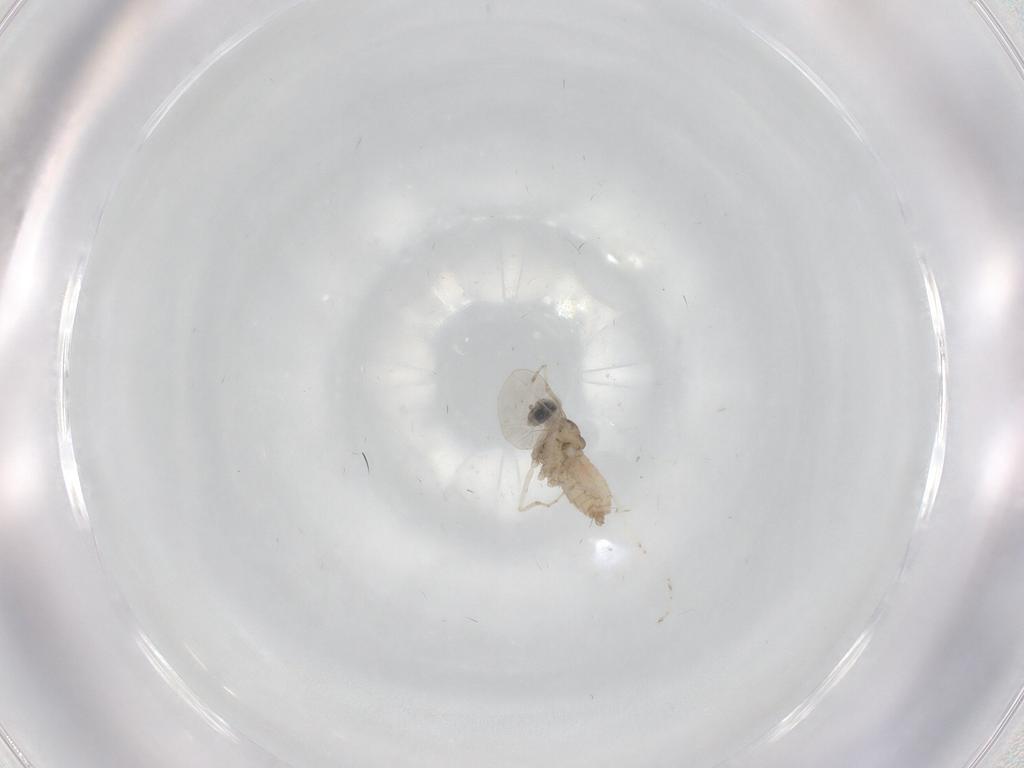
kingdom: Animalia
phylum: Arthropoda
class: Insecta
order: Diptera
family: Cecidomyiidae
